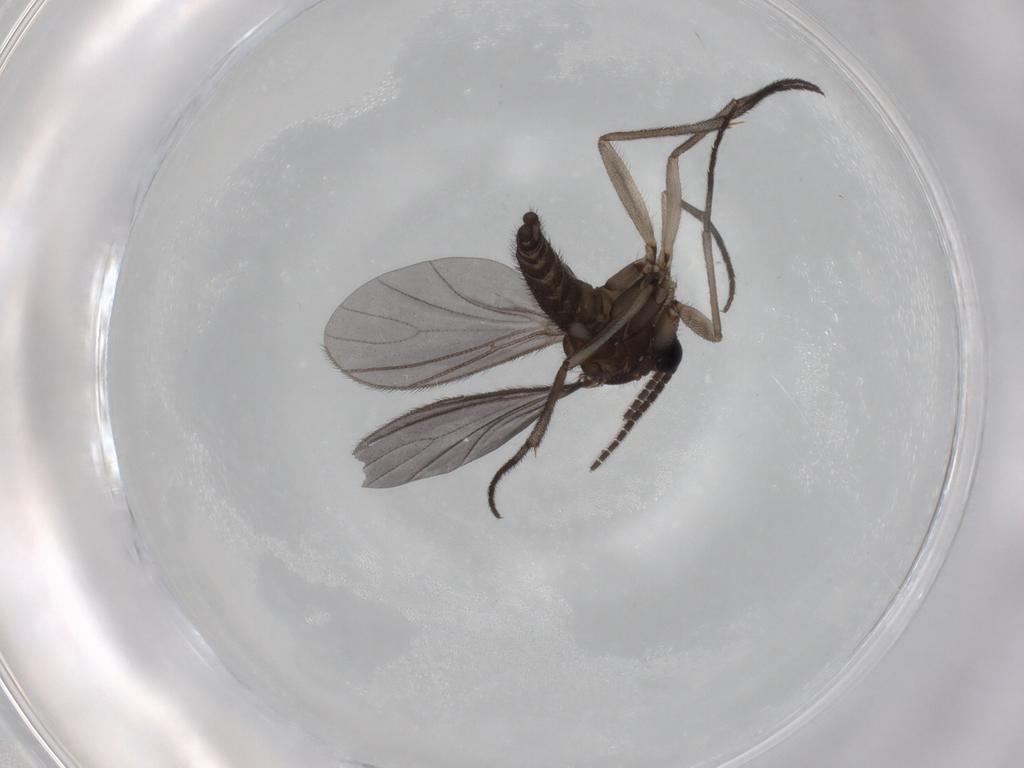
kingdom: Animalia
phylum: Arthropoda
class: Insecta
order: Diptera
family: Sciaridae
